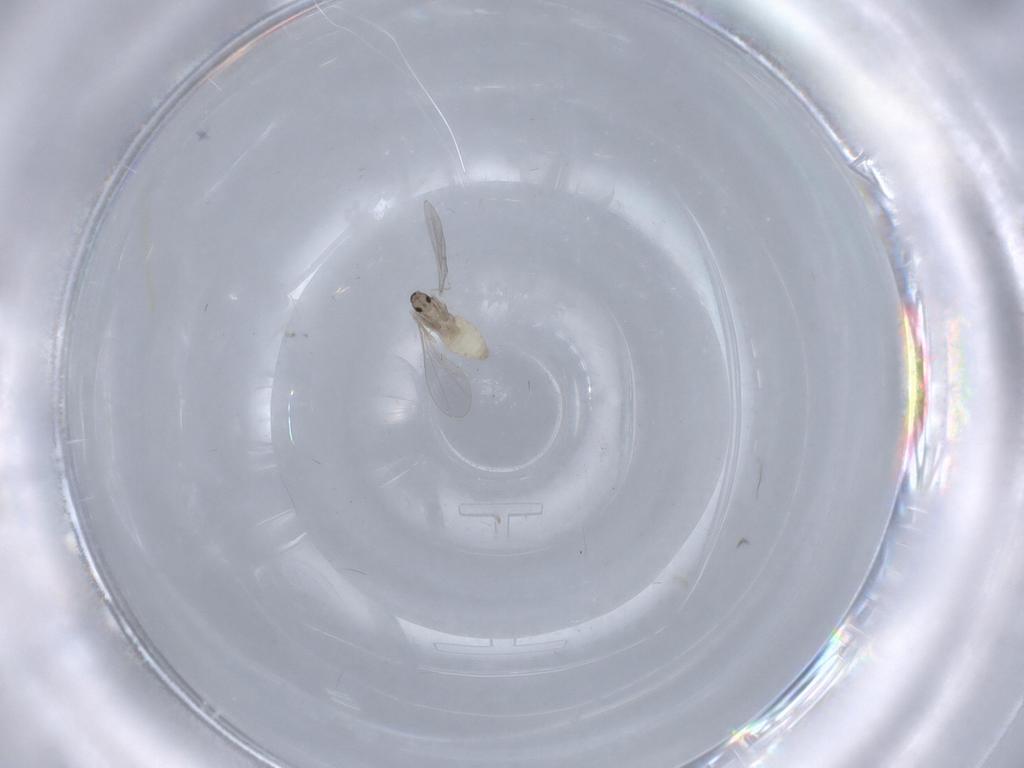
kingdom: Animalia
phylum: Arthropoda
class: Insecta
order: Diptera
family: Cecidomyiidae
